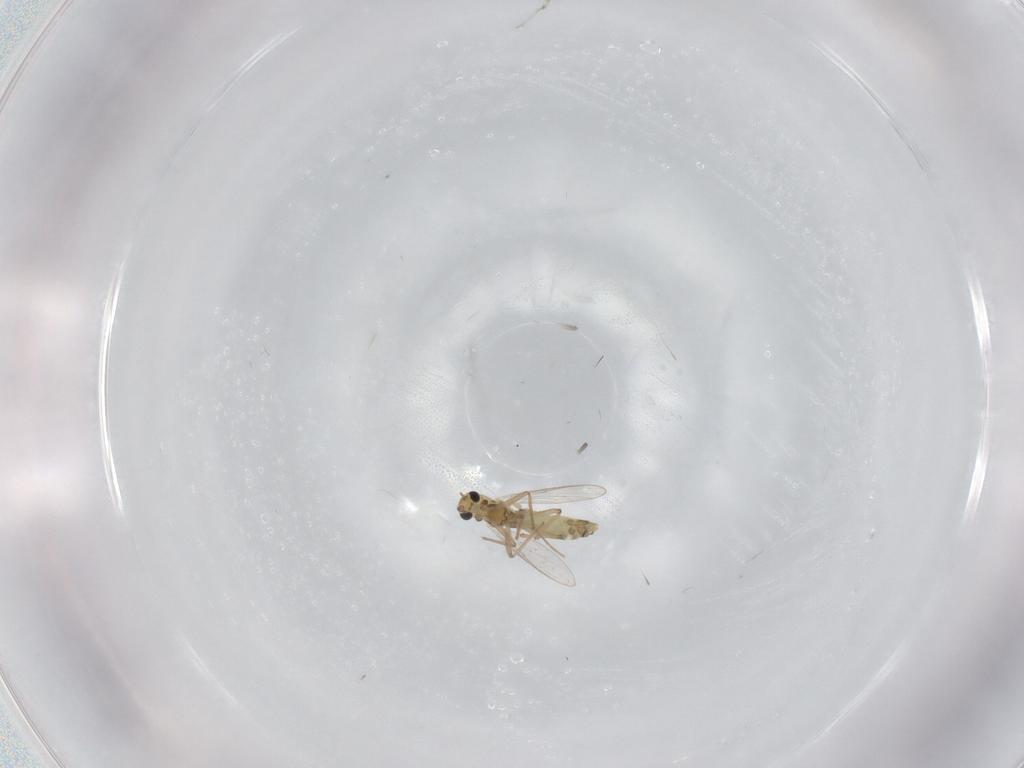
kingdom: Animalia
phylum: Arthropoda
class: Insecta
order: Diptera
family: Chironomidae
